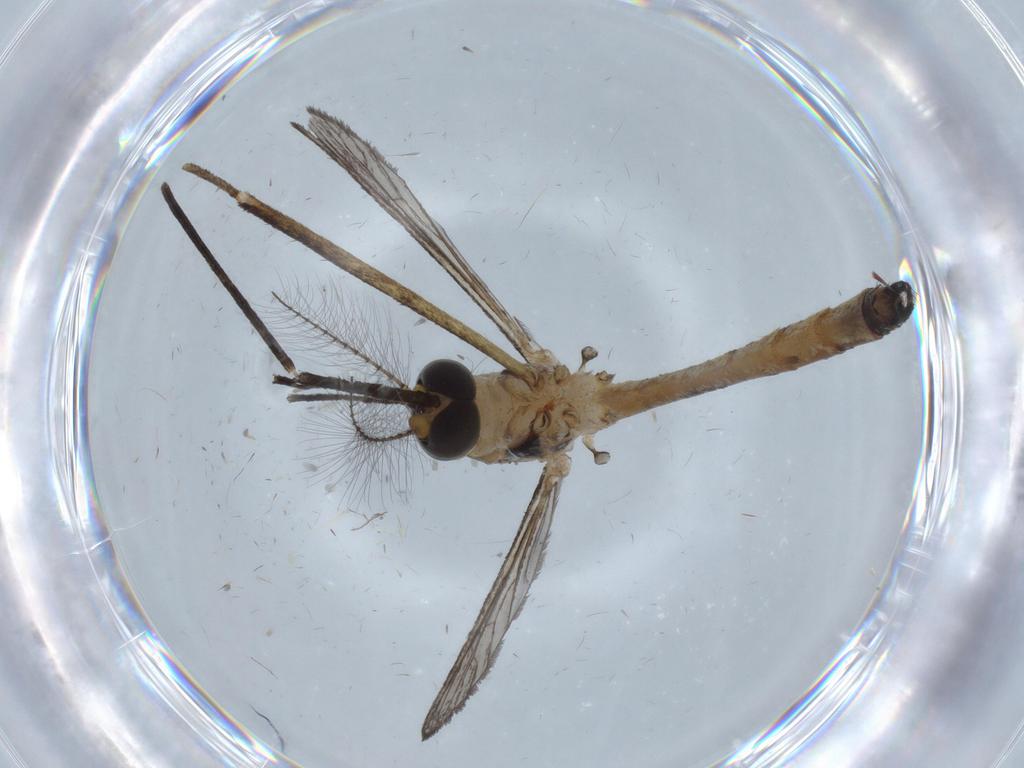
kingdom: Animalia
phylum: Arthropoda
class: Insecta
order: Diptera
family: Cecidomyiidae
